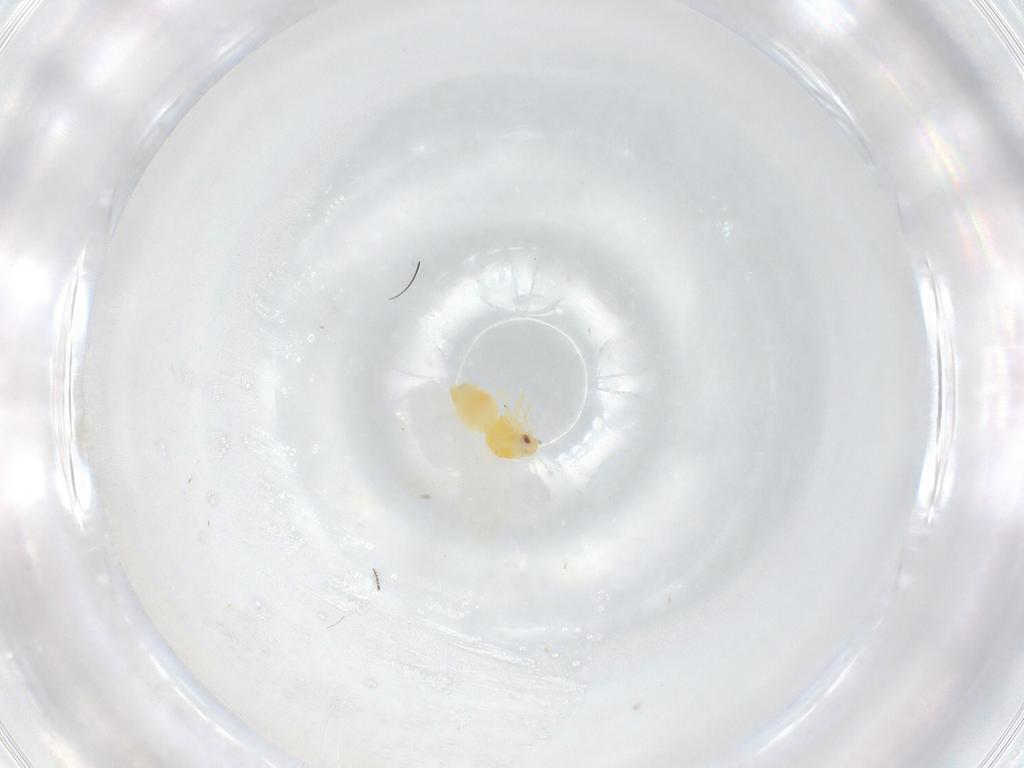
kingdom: Animalia
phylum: Arthropoda
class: Insecta
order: Hemiptera
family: Aleyrodidae
